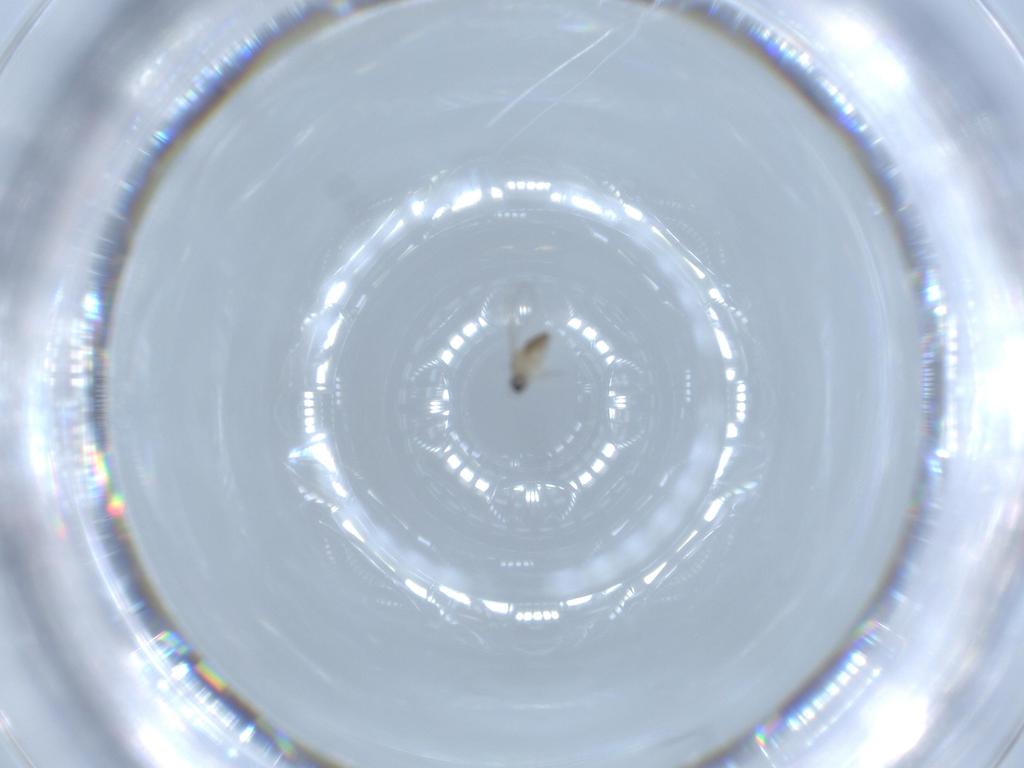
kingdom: Animalia
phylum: Arthropoda
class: Insecta
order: Diptera
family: Cecidomyiidae
